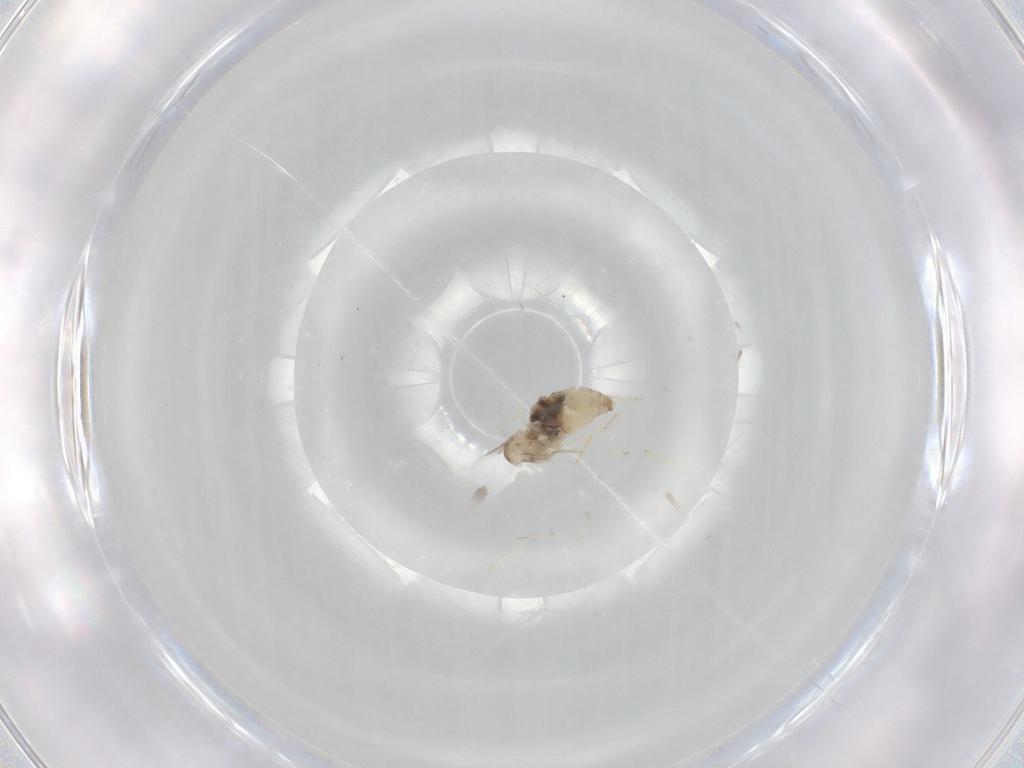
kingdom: Animalia
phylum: Arthropoda
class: Insecta
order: Diptera
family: Cecidomyiidae
